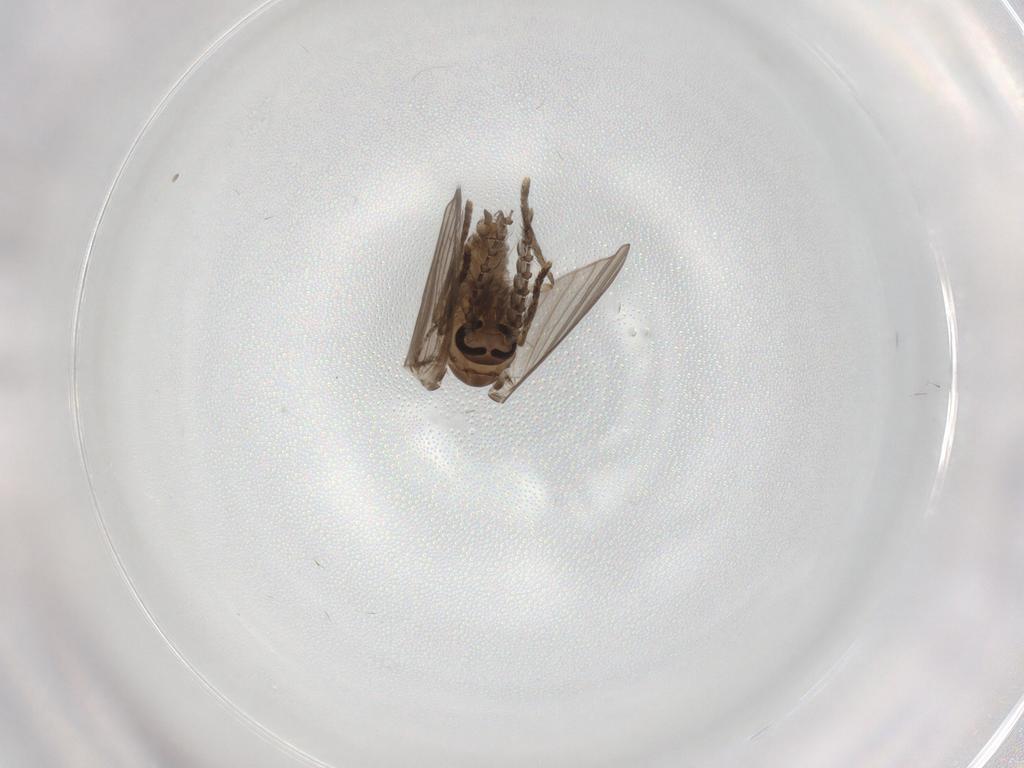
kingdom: Animalia
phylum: Arthropoda
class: Insecta
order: Diptera
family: Psychodidae
